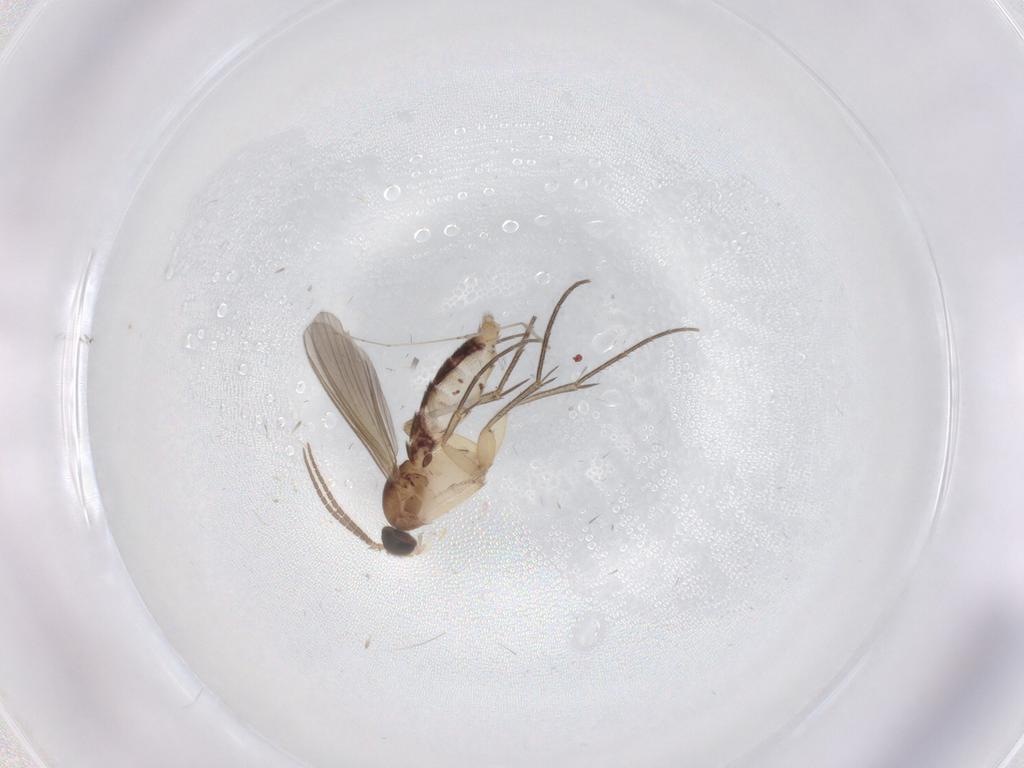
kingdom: Animalia
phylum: Arthropoda
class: Insecta
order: Diptera
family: Mycetophilidae
